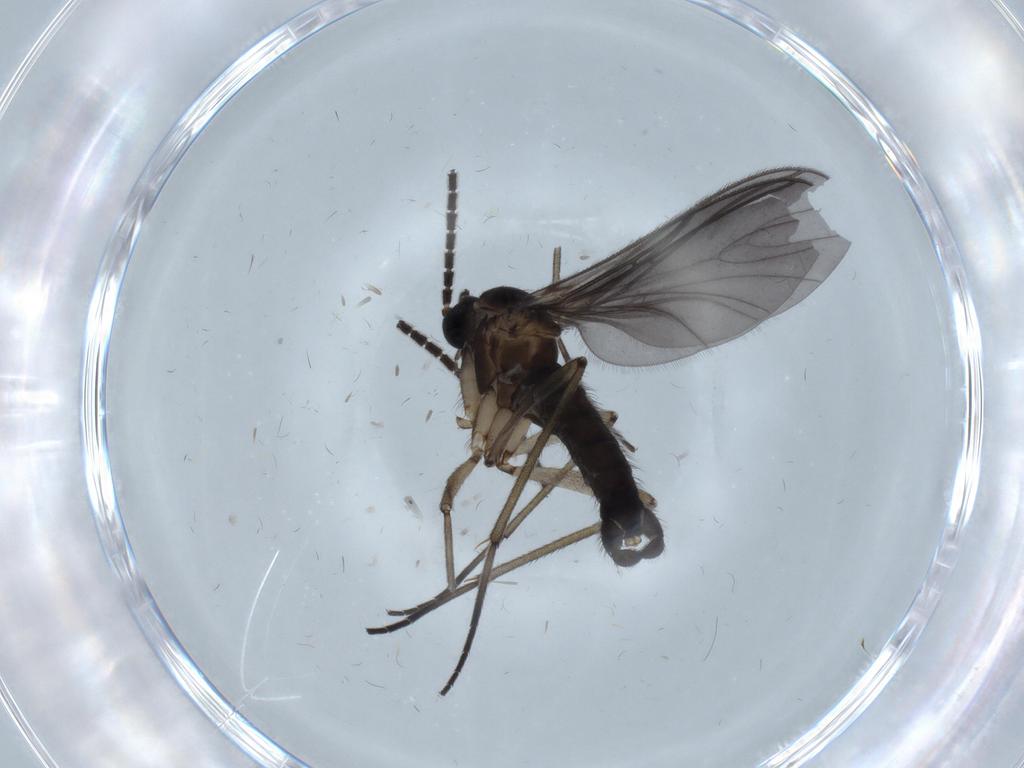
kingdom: Animalia
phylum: Arthropoda
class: Insecta
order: Diptera
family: Sciaridae
